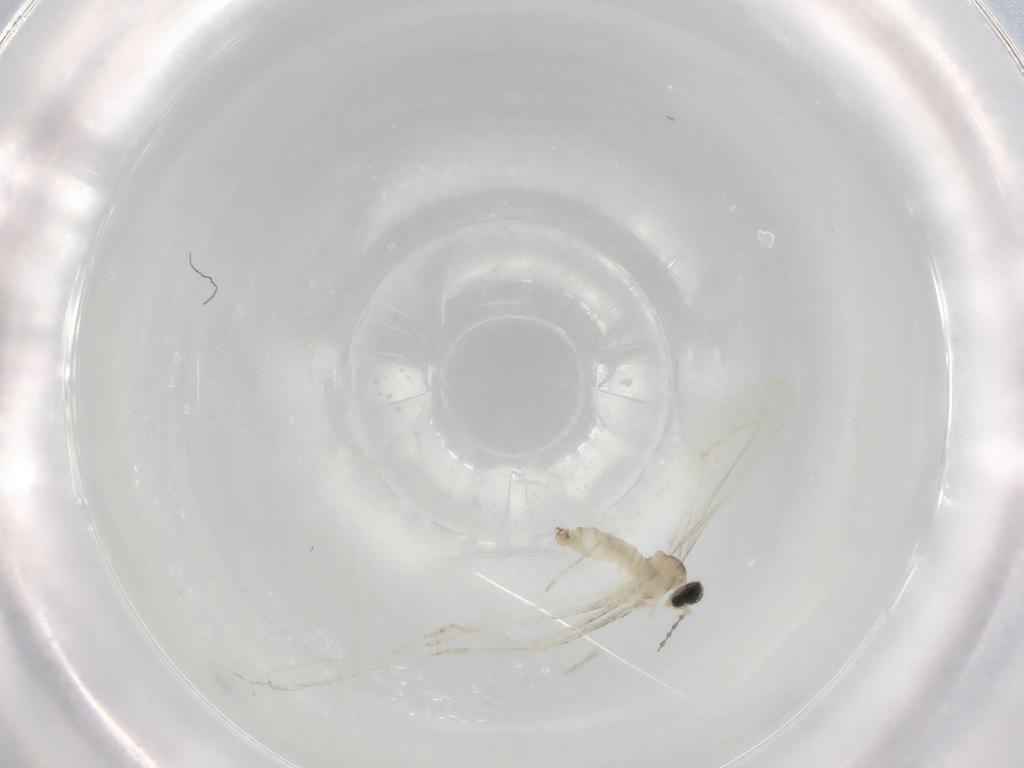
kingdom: Animalia
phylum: Arthropoda
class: Insecta
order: Diptera
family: Cecidomyiidae
